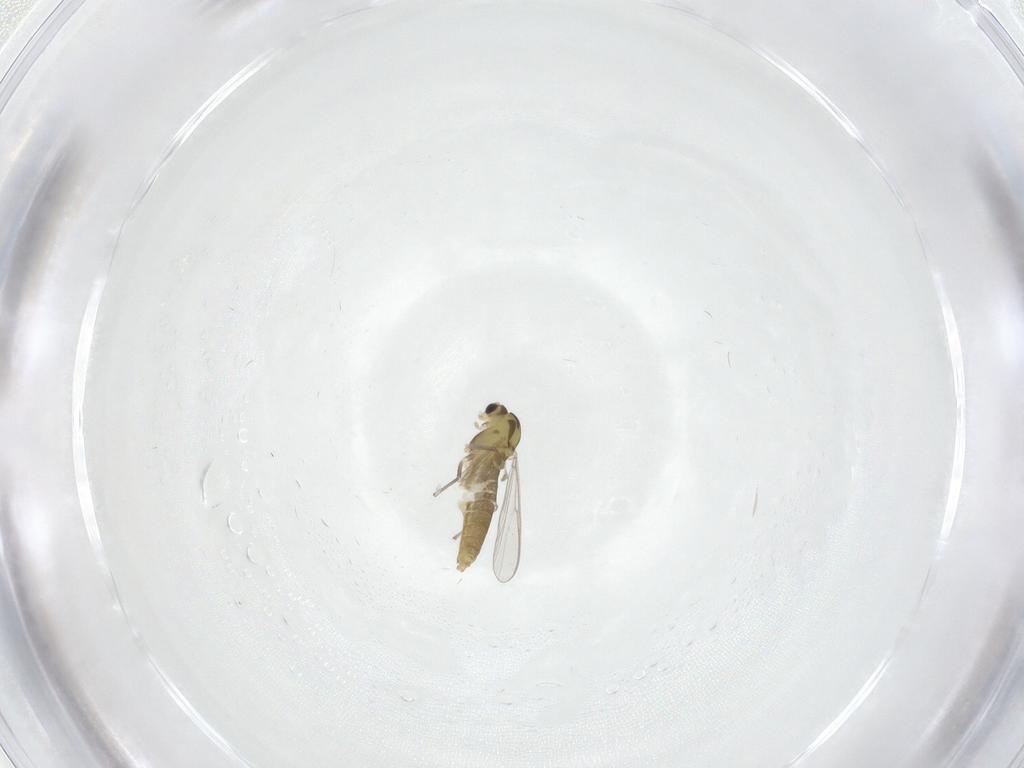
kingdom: Animalia
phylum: Arthropoda
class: Insecta
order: Diptera
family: Chironomidae
